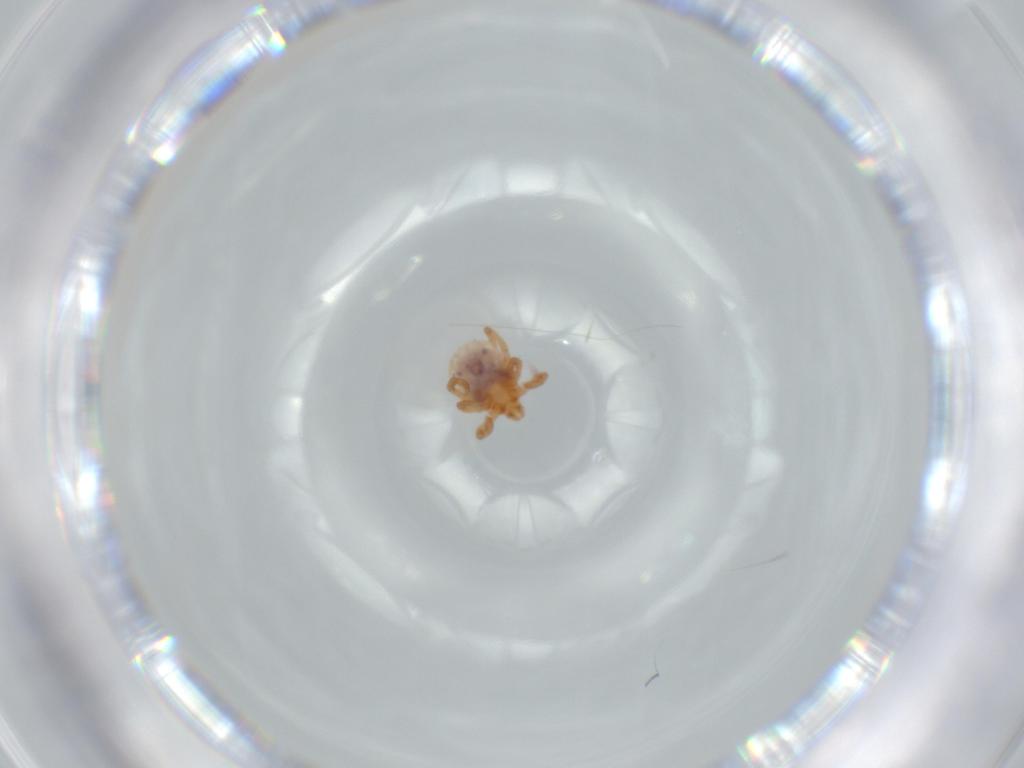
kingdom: Animalia
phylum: Arthropoda
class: Arachnida
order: Ixodida
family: Ixodidae
